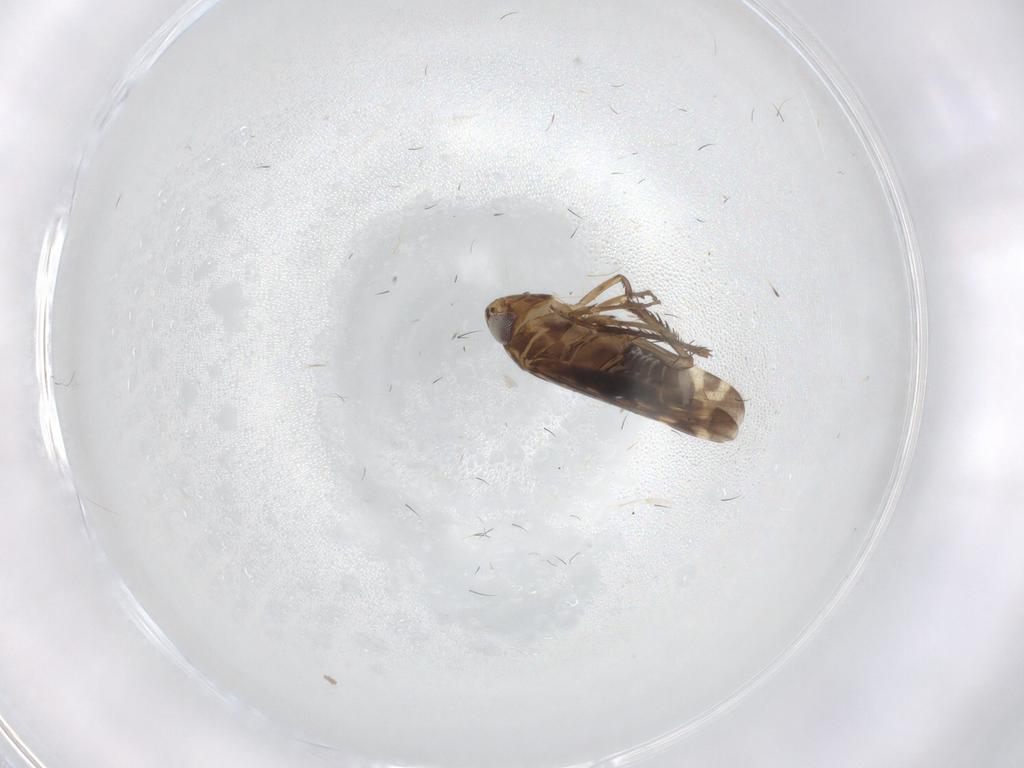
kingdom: Animalia
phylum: Arthropoda
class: Insecta
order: Hemiptera
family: Cicadellidae
